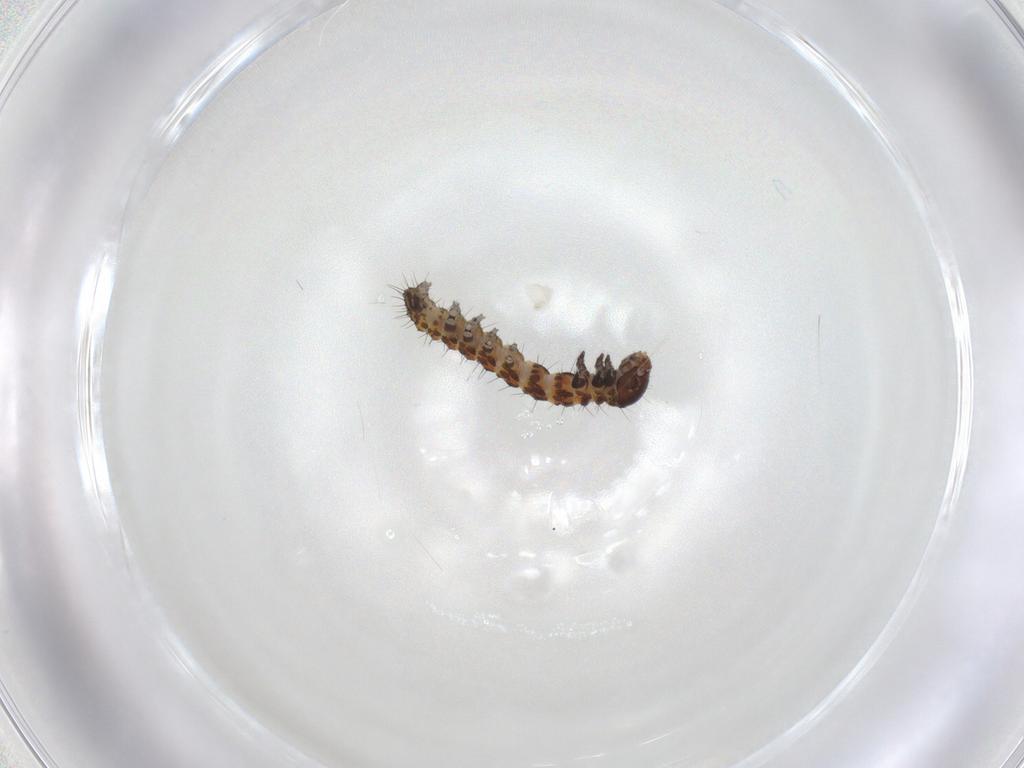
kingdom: Animalia
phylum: Arthropoda
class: Insecta
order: Lepidoptera
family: Noctuidae
